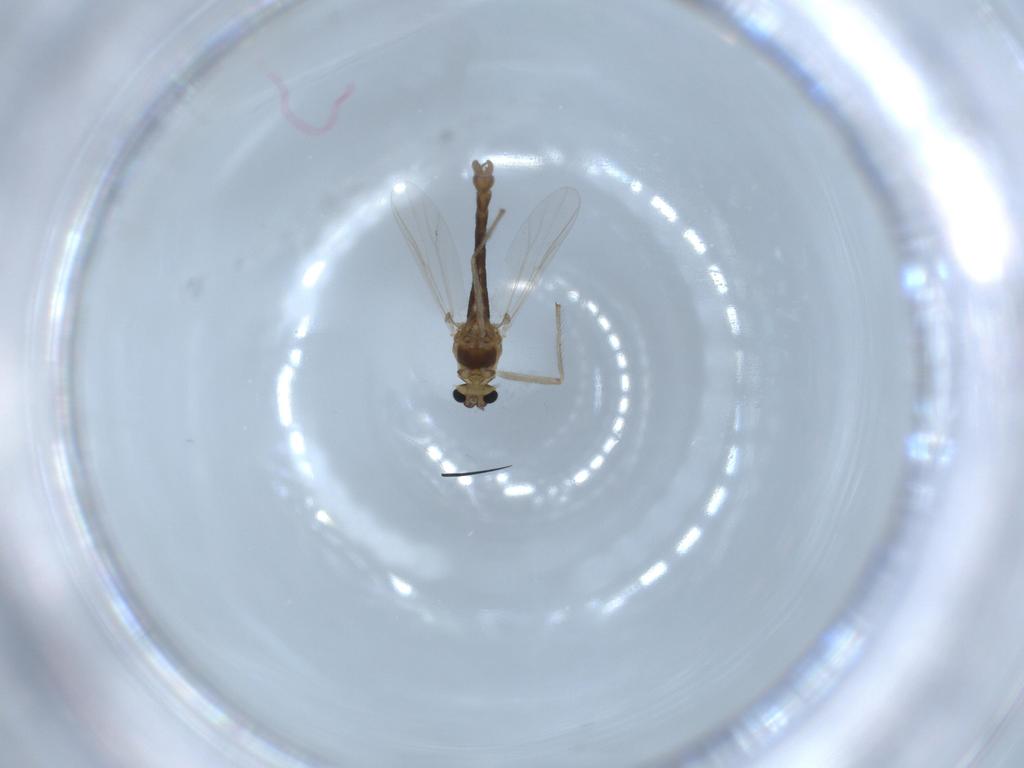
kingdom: Animalia
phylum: Arthropoda
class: Insecta
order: Diptera
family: Chironomidae
